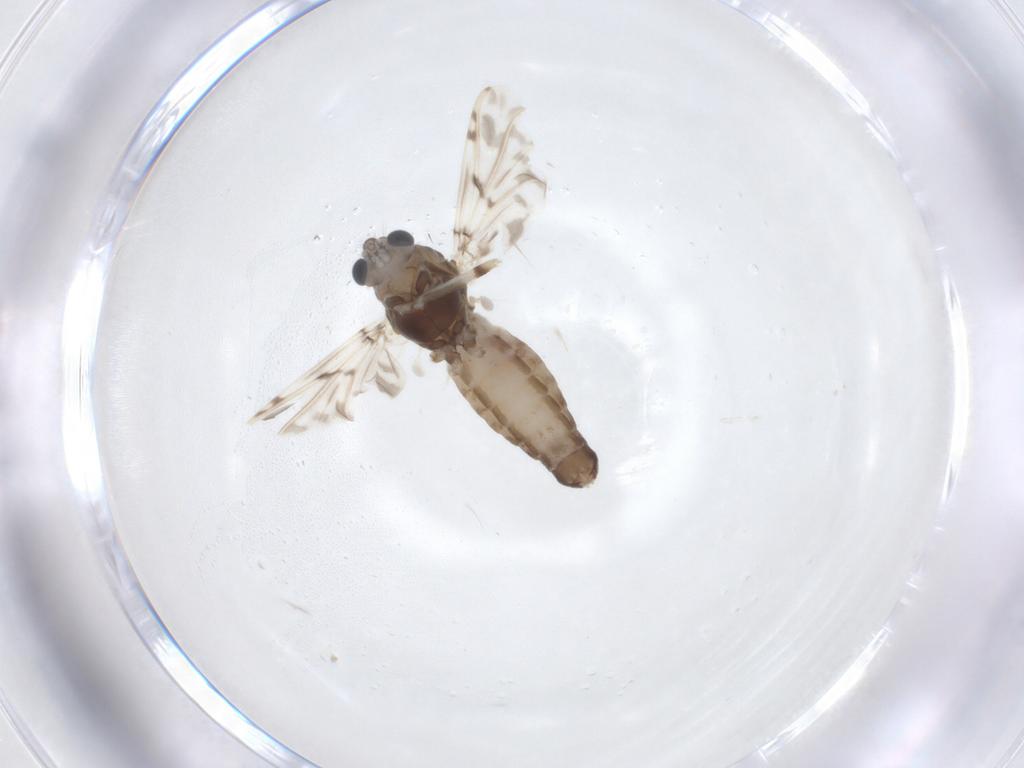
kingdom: Animalia
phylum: Arthropoda
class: Insecta
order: Diptera
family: Chironomidae
